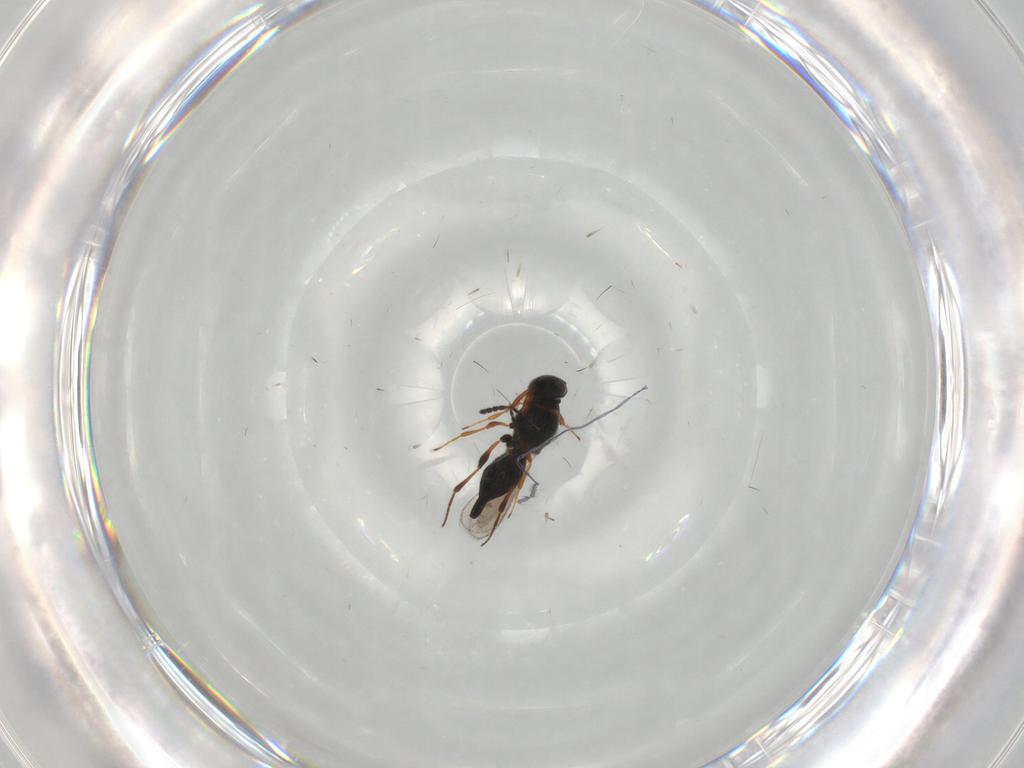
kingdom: Animalia
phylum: Arthropoda
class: Insecta
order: Hymenoptera
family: Platygastridae
